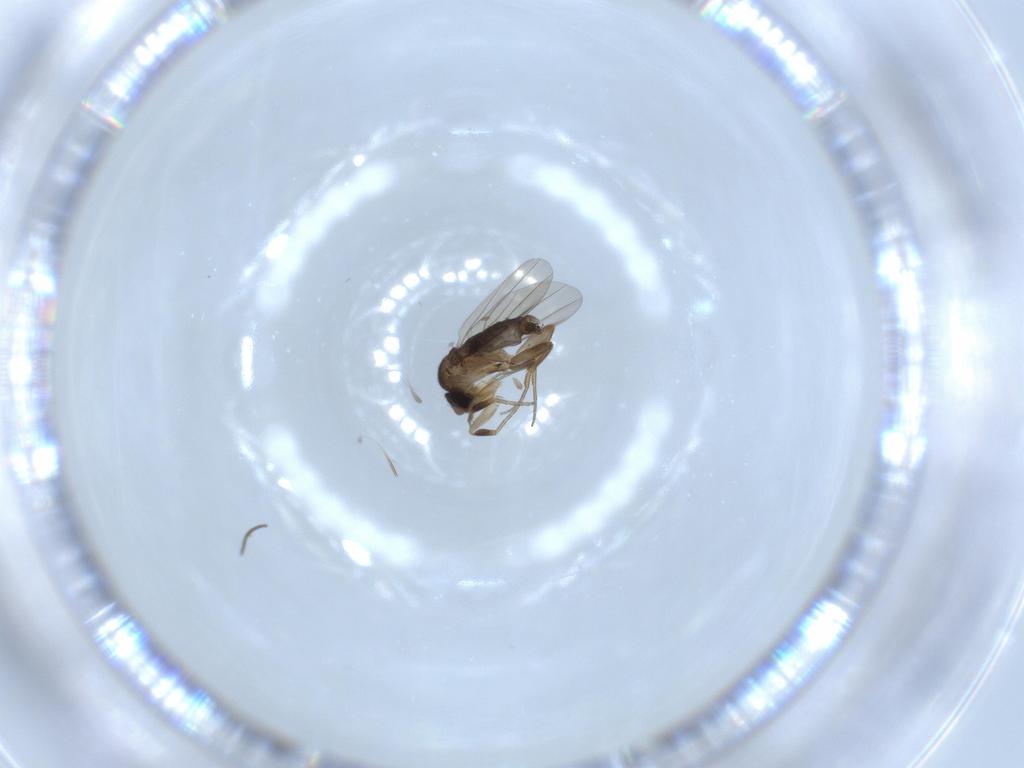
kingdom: Animalia
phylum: Arthropoda
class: Insecta
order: Diptera
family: Phoridae
